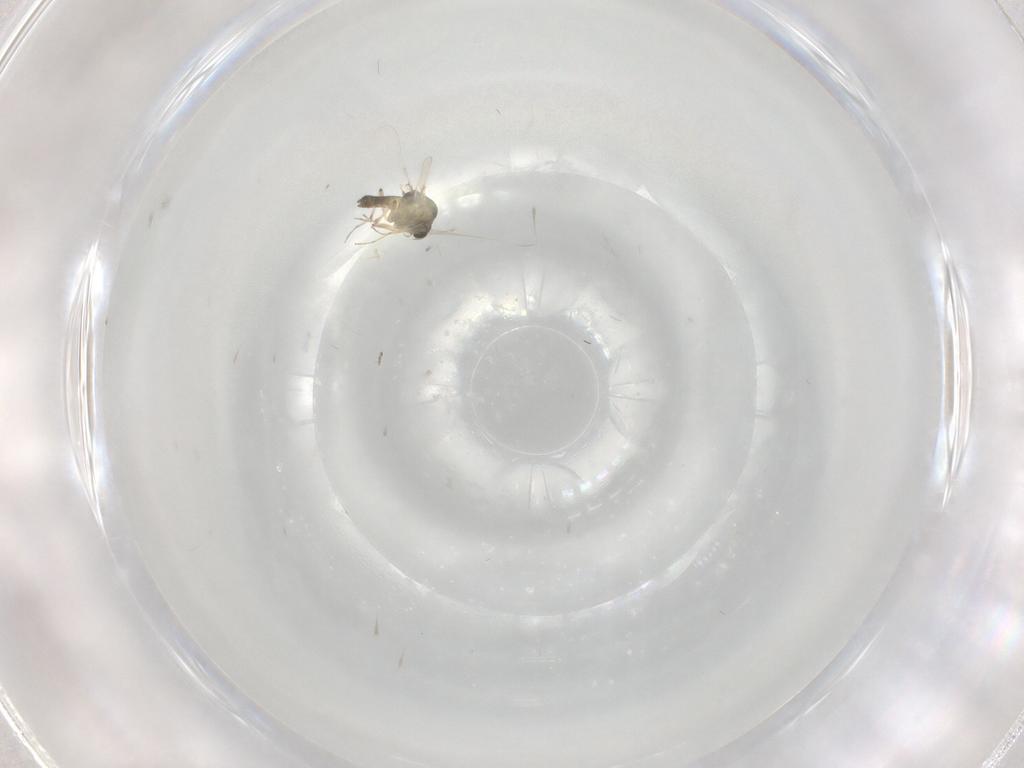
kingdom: Animalia
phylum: Arthropoda
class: Insecta
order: Diptera
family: Chironomidae
